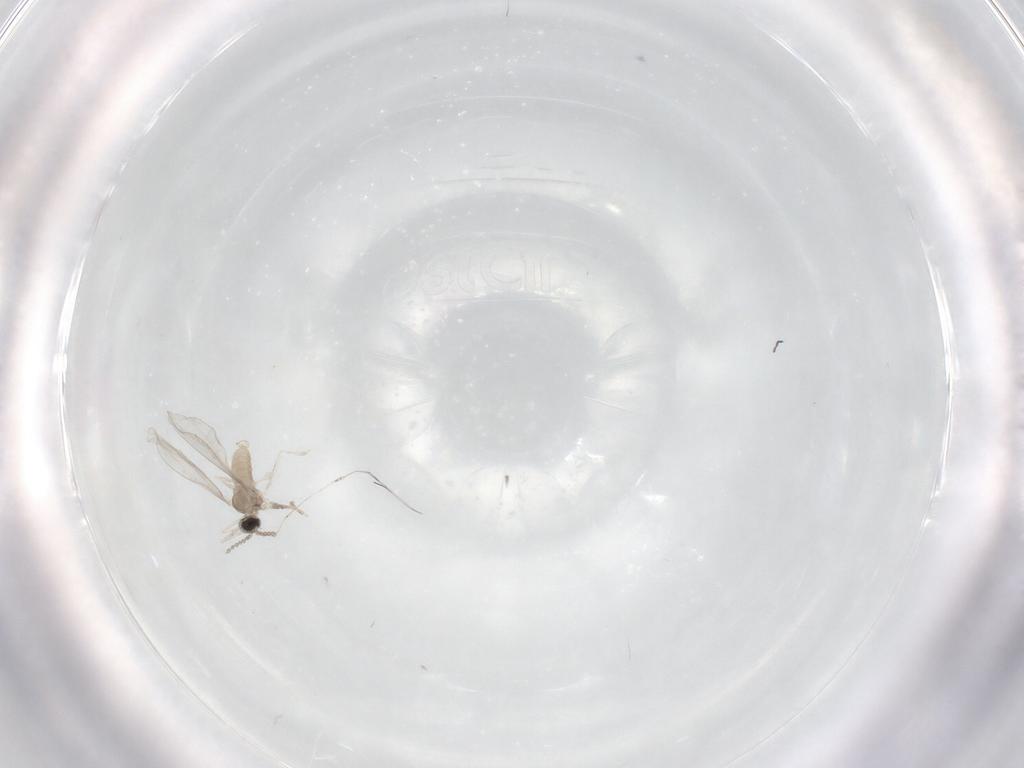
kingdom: Animalia
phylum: Arthropoda
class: Insecta
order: Diptera
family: Cecidomyiidae
